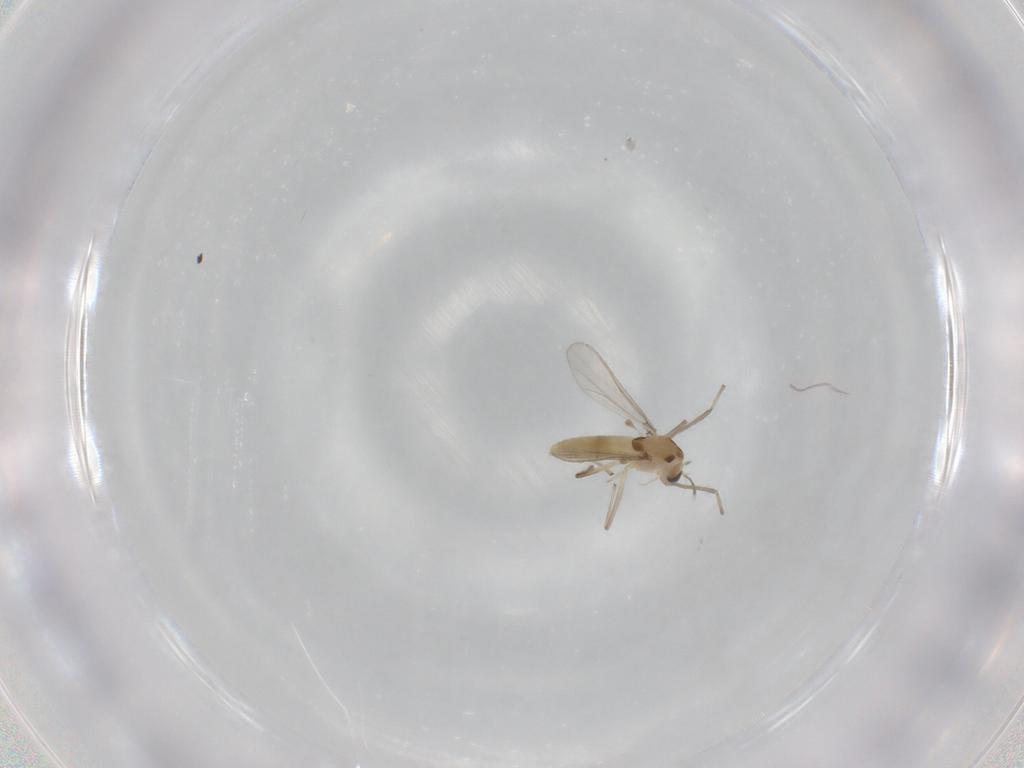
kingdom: Animalia
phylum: Arthropoda
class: Insecta
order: Diptera
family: Chironomidae
